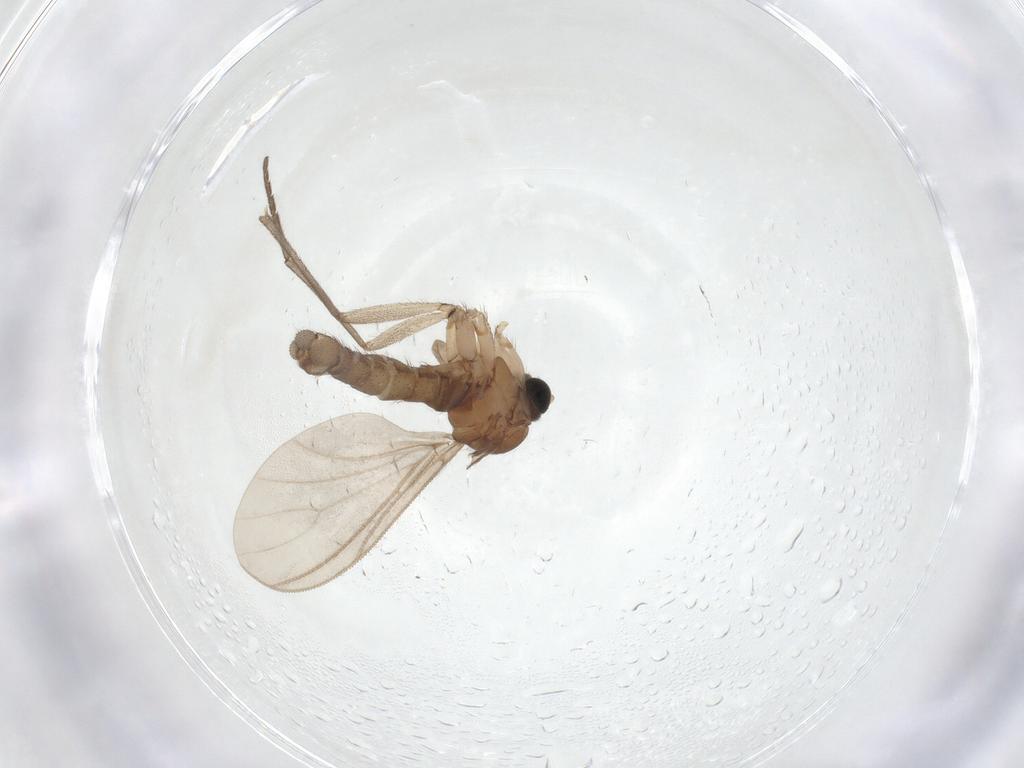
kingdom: Animalia
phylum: Arthropoda
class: Insecta
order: Diptera
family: Sciaridae
